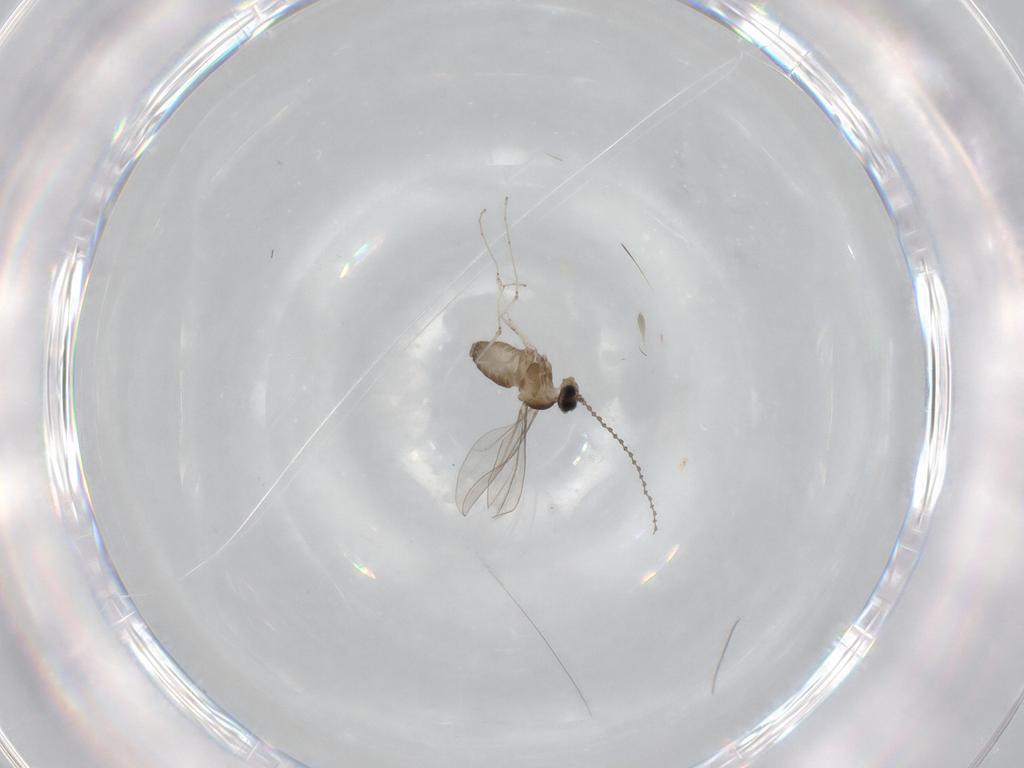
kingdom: Animalia
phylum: Arthropoda
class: Insecta
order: Diptera
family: Cecidomyiidae
